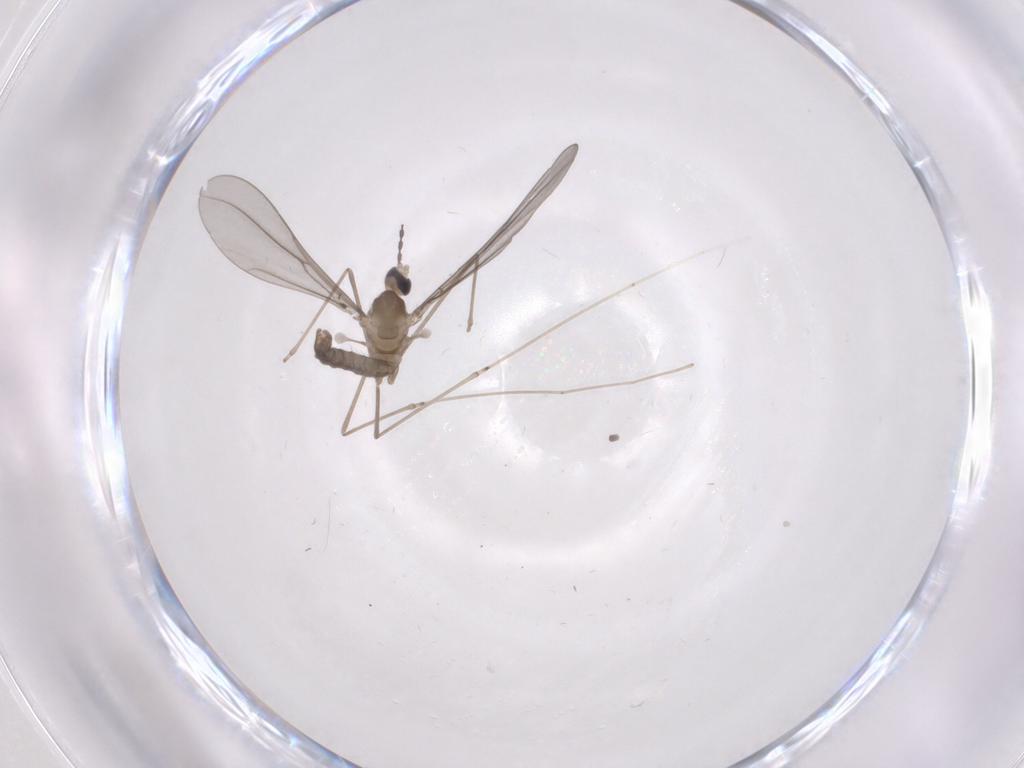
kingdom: Animalia
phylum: Arthropoda
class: Insecta
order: Diptera
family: Cecidomyiidae
